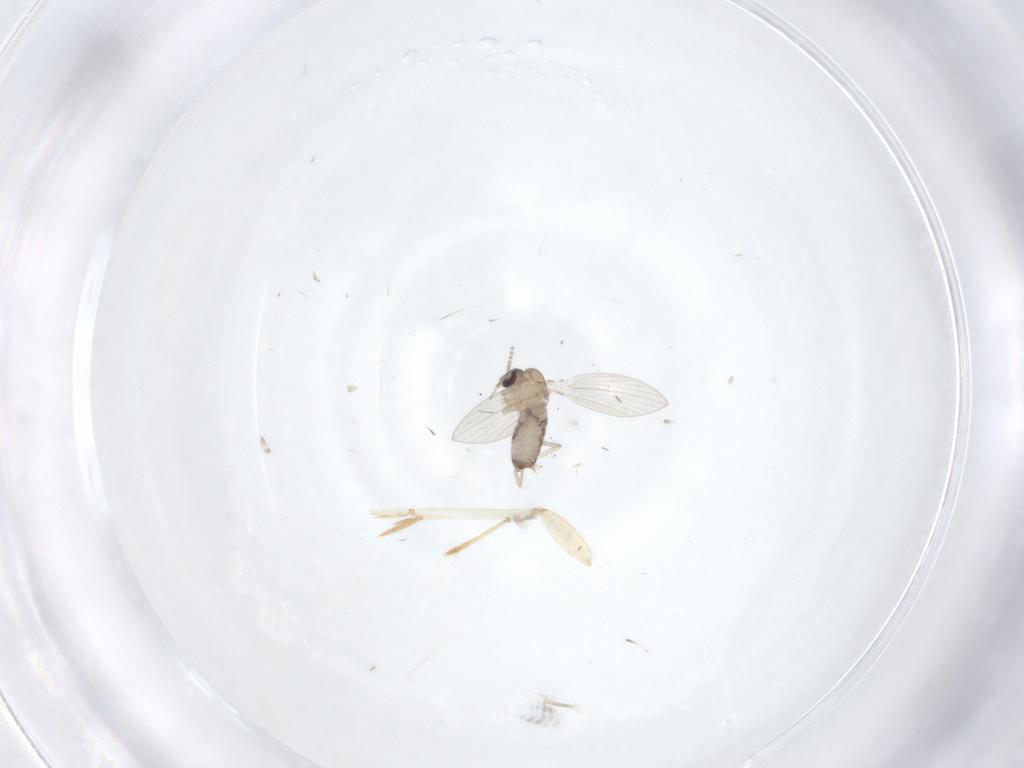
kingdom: Animalia
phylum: Arthropoda
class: Insecta
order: Diptera
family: Psychodidae
